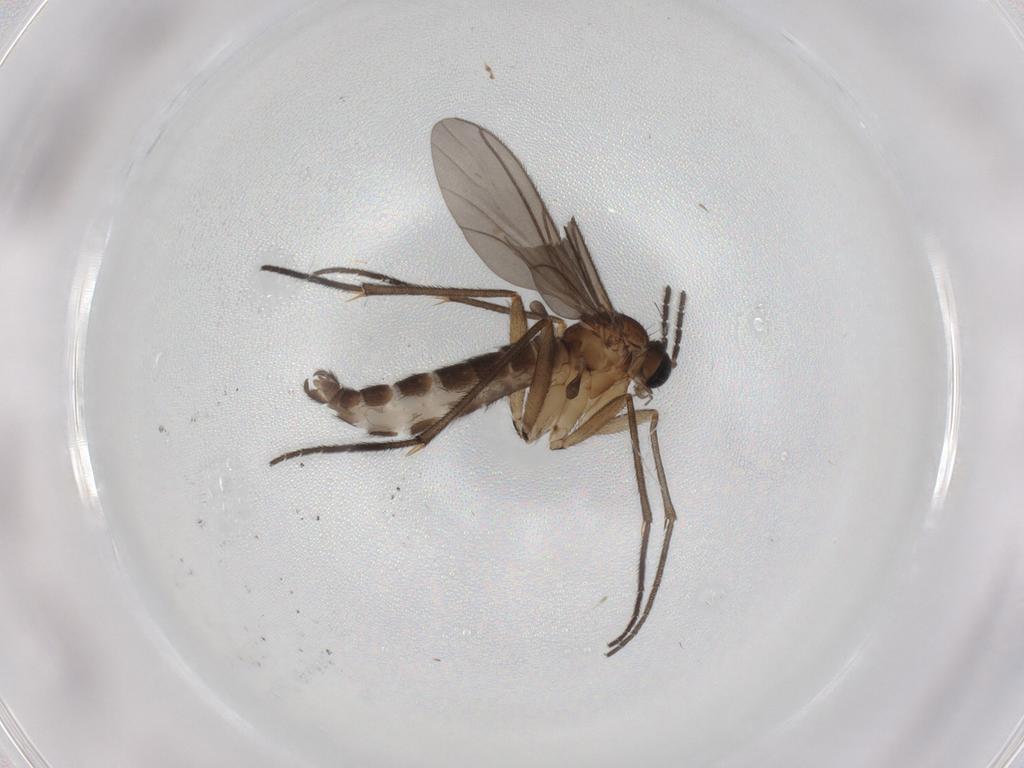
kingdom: Animalia
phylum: Arthropoda
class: Insecta
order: Diptera
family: Sciaridae
